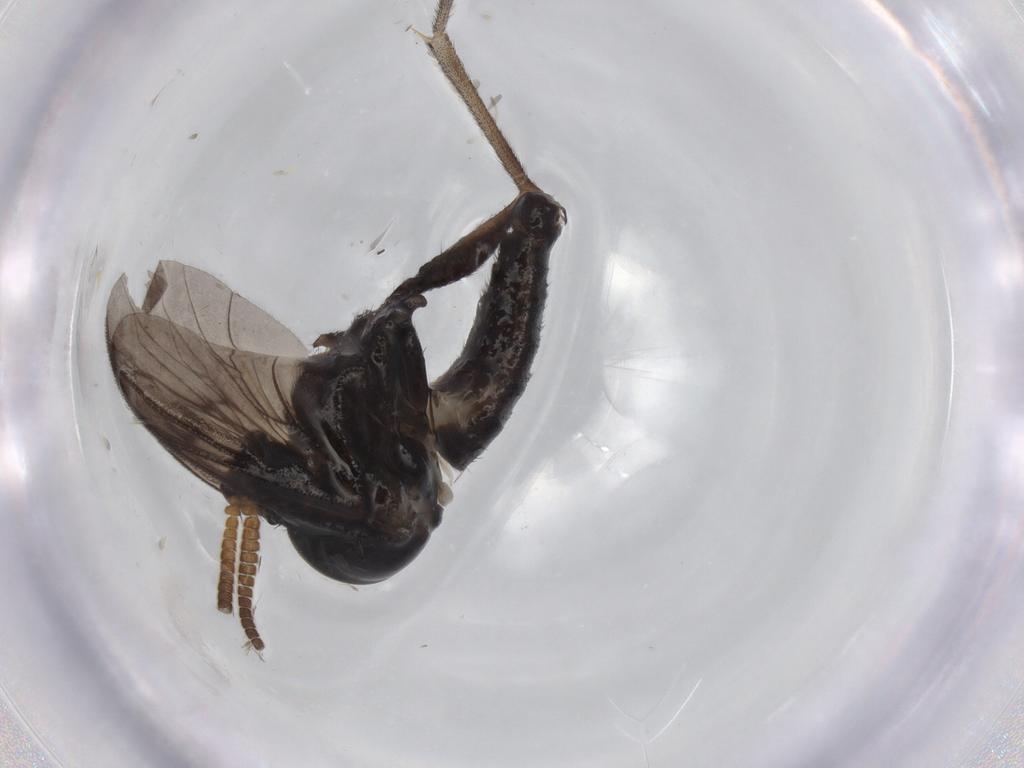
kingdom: Animalia
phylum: Arthropoda
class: Insecta
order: Diptera
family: Sciaridae
